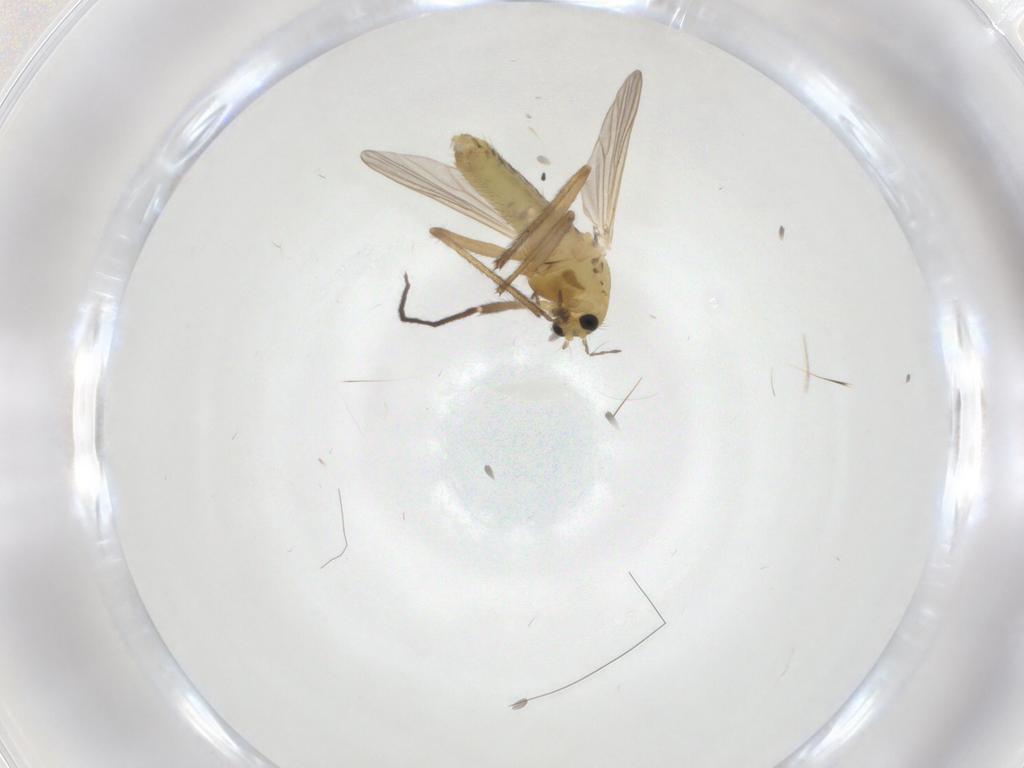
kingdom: Animalia
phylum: Arthropoda
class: Insecta
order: Diptera
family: Chironomidae
